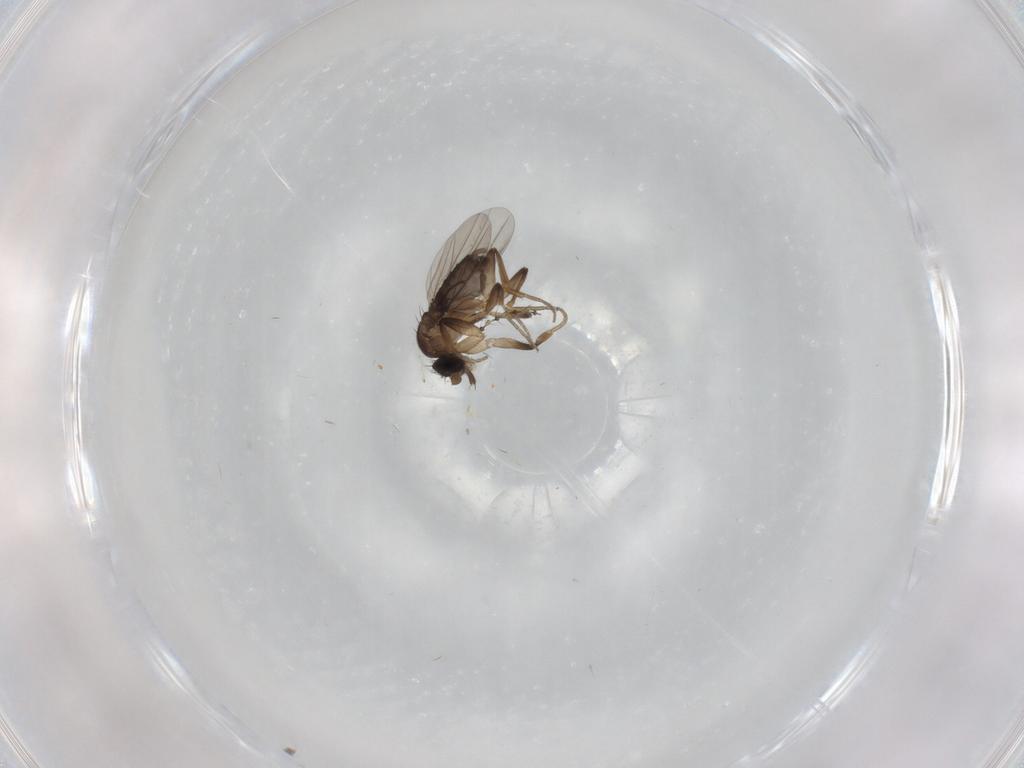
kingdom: Animalia
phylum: Arthropoda
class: Insecta
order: Diptera
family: Cecidomyiidae
